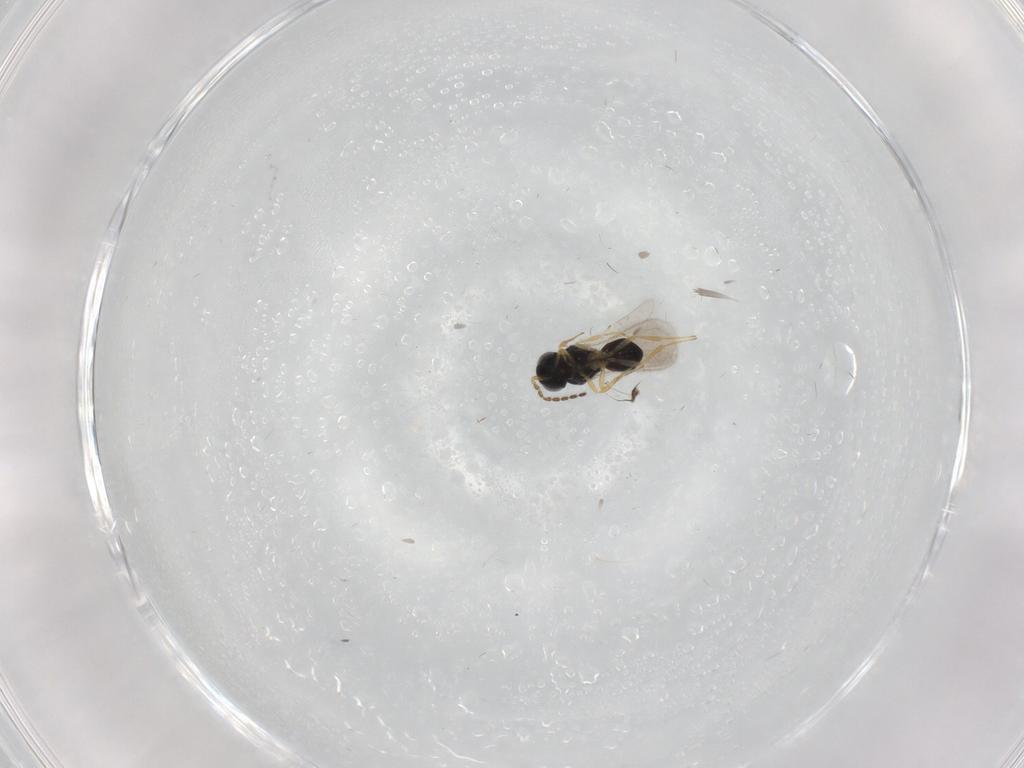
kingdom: Animalia
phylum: Arthropoda
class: Insecta
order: Hymenoptera
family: Scelionidae
